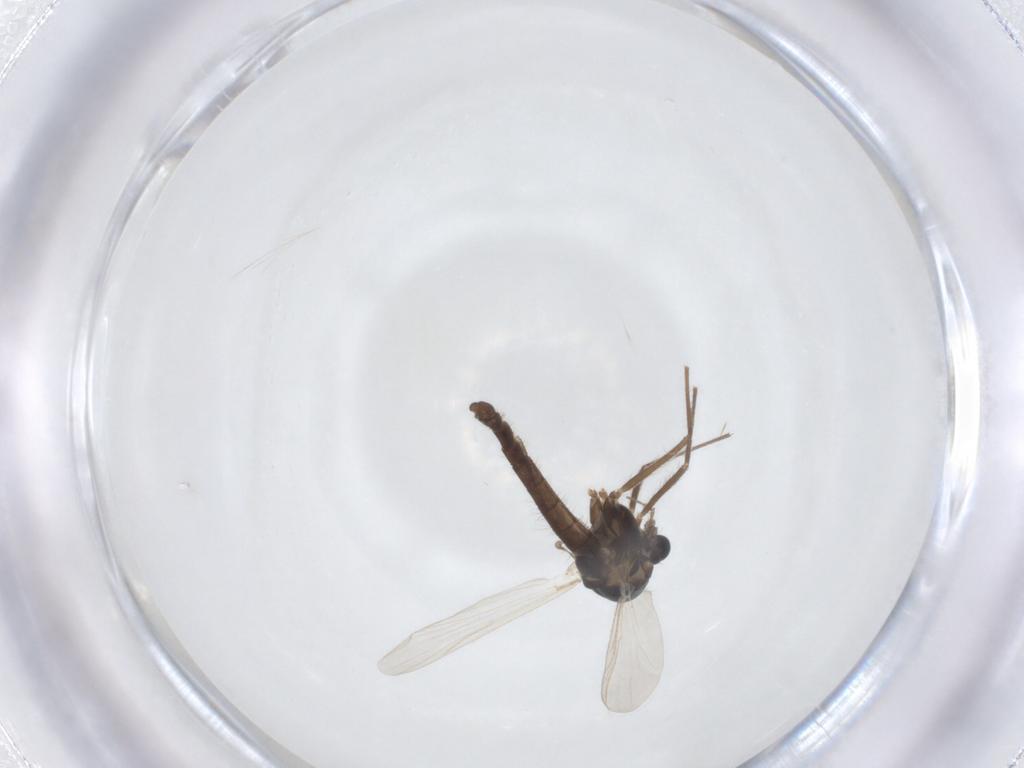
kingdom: Animalia
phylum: Arthropoda
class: Insecta
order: Diptera
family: Chironomidae
